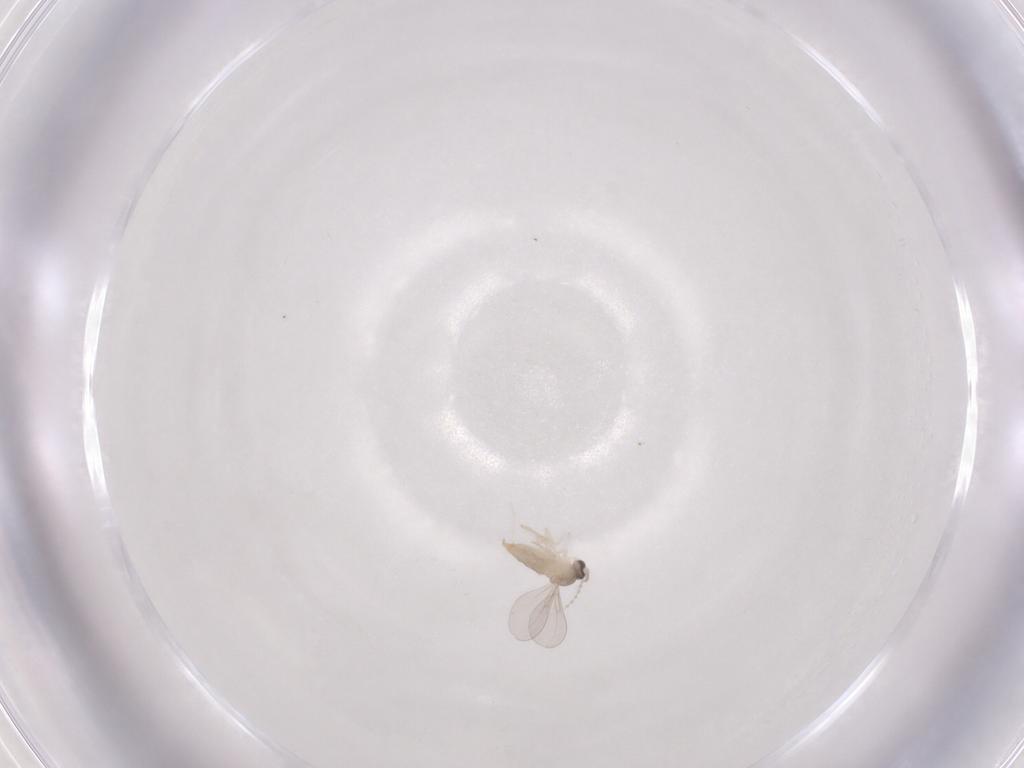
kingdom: Animalia
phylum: Arthropoda
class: Insecta
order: Diptera
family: Cecidomyiidae
